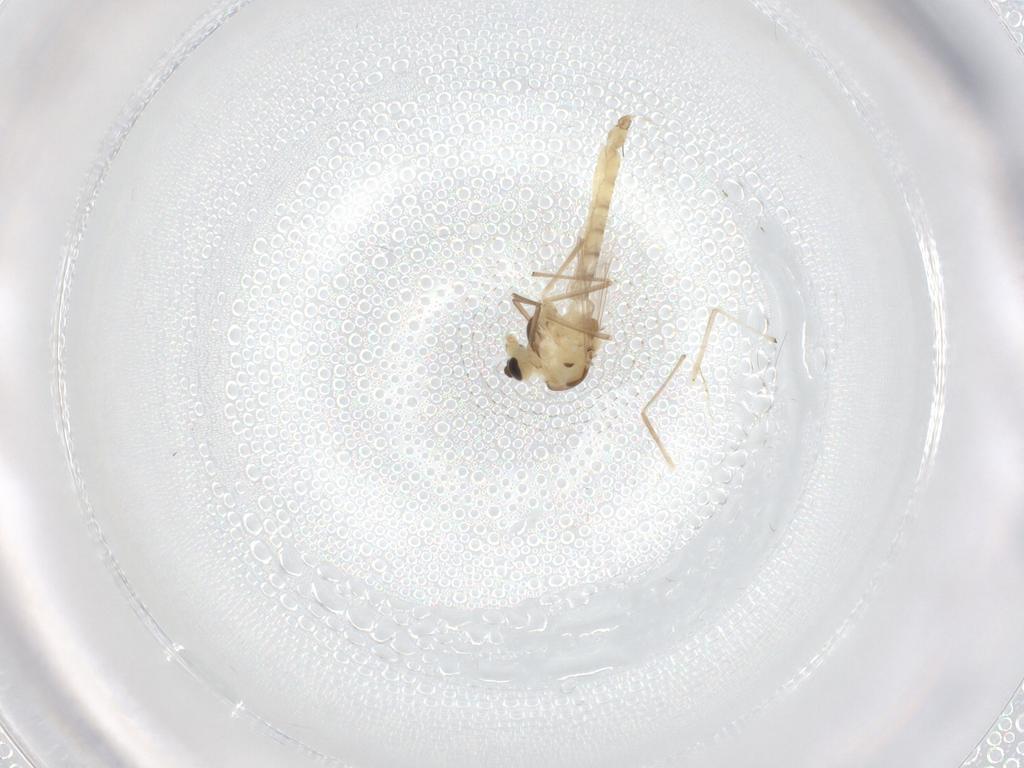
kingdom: Animalia
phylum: Arthropoda
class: Insecta
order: Diptera
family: Chironomidae
